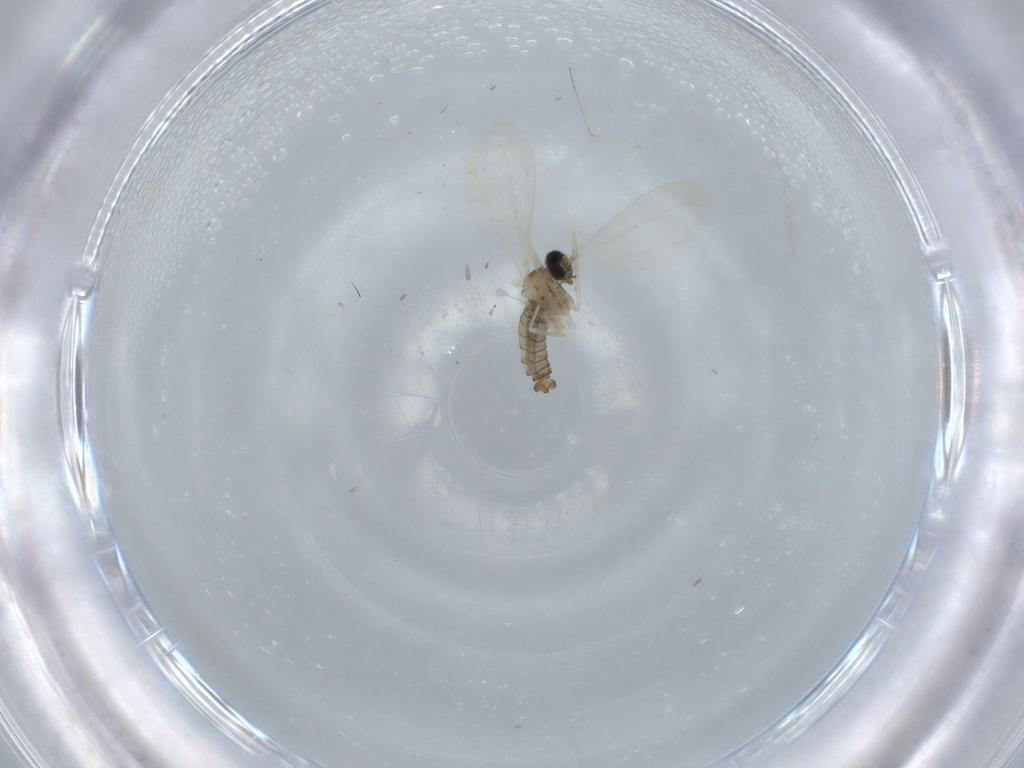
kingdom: Animalia
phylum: Arthropoda
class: Insecta
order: Diptera
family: Cecidomyiidae
